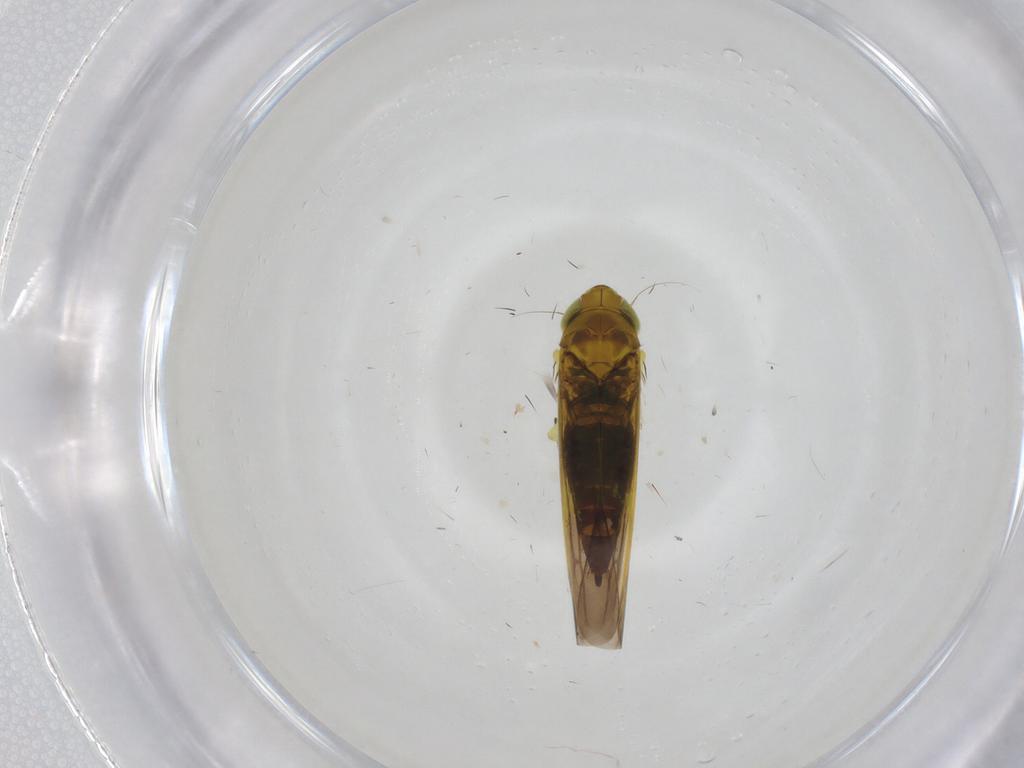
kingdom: Animalia
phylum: Arthropoda
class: Insecta
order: Hemiptera
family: Cicadellidae
